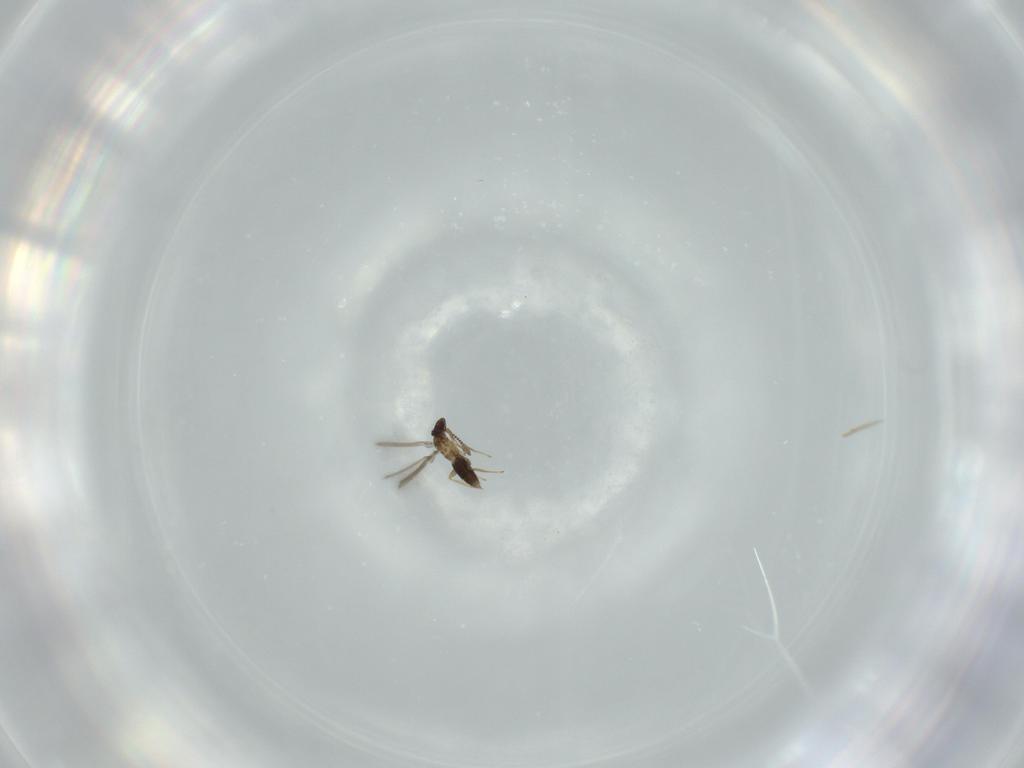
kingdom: Animalia
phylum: Arthropoda
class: Insecta
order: Hymenoptera
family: Mymaridae
